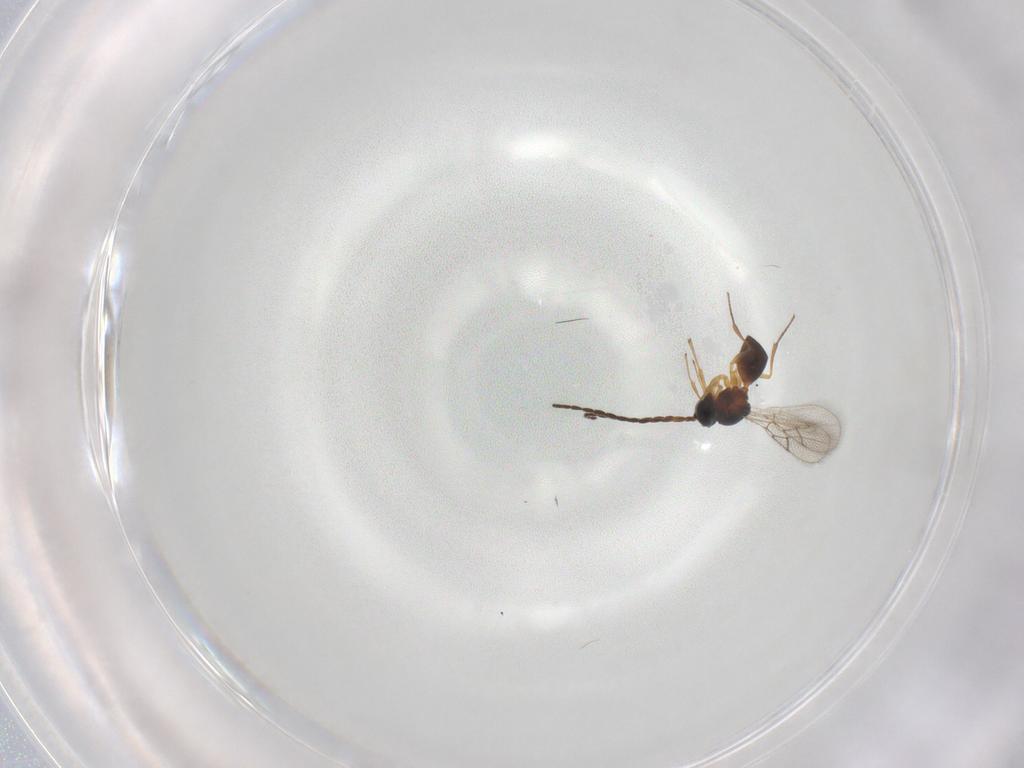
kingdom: Animalia
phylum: Arthropoda
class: Insecta
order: Hymenoptera
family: Figitidae
